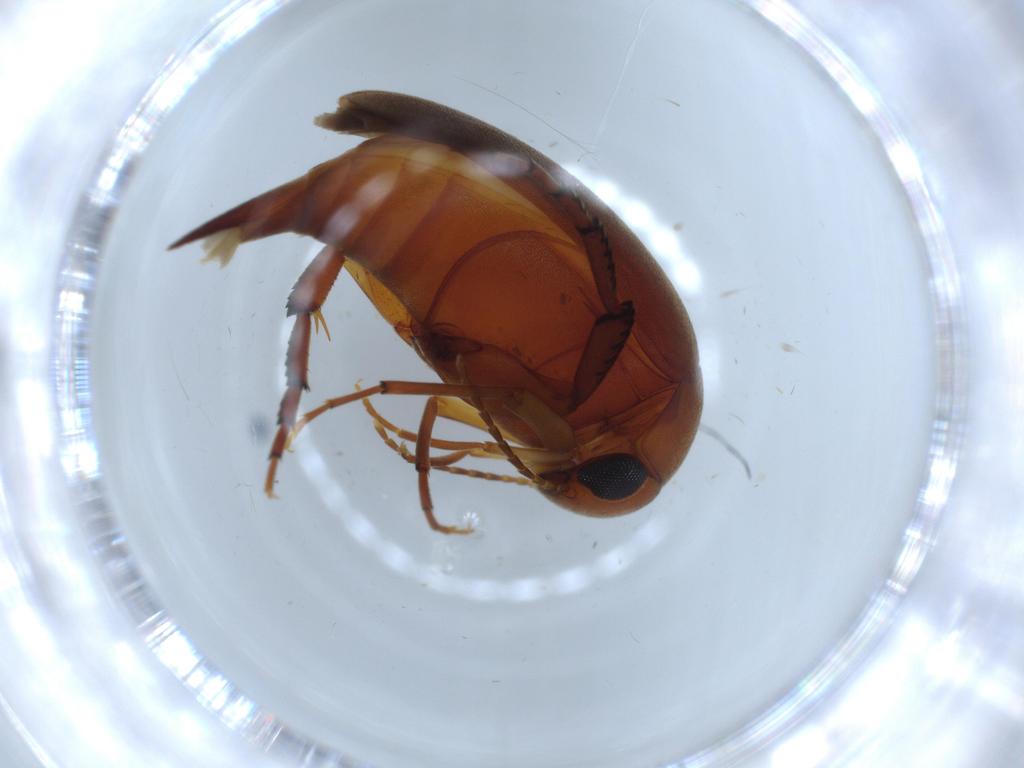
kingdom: Animalia
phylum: Arthropoda
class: Insecta
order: Coleoptera
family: Mordellidae
